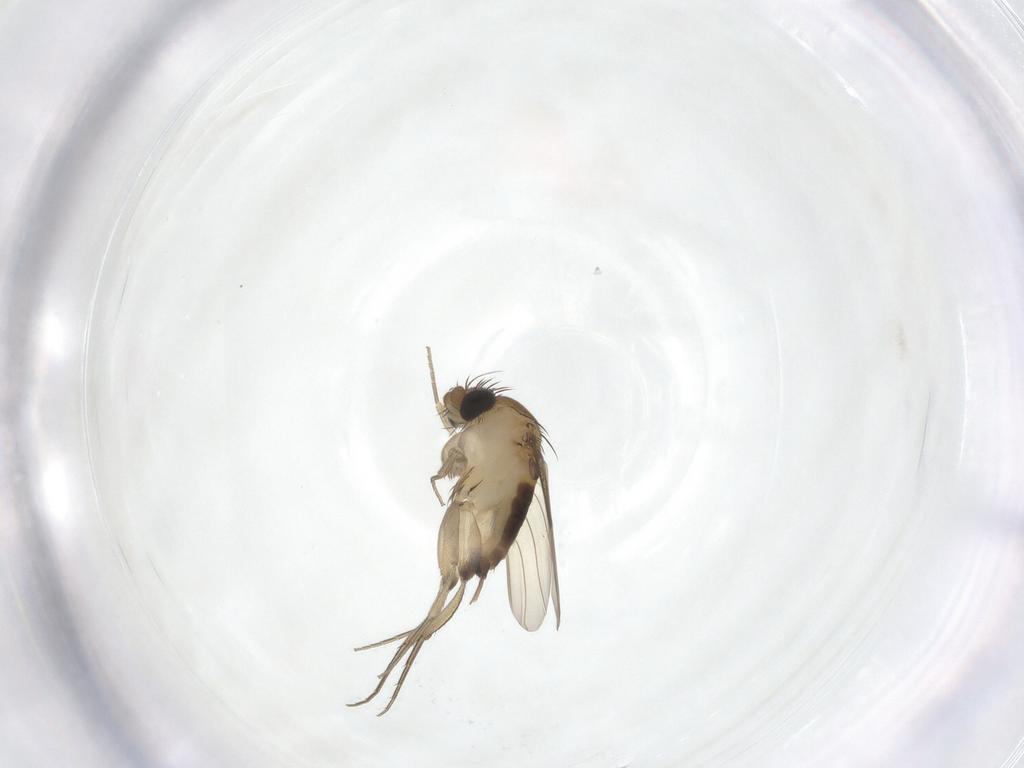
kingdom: Animalia
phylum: Arthropoda
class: Insecta
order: Diptera
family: Phoridae
